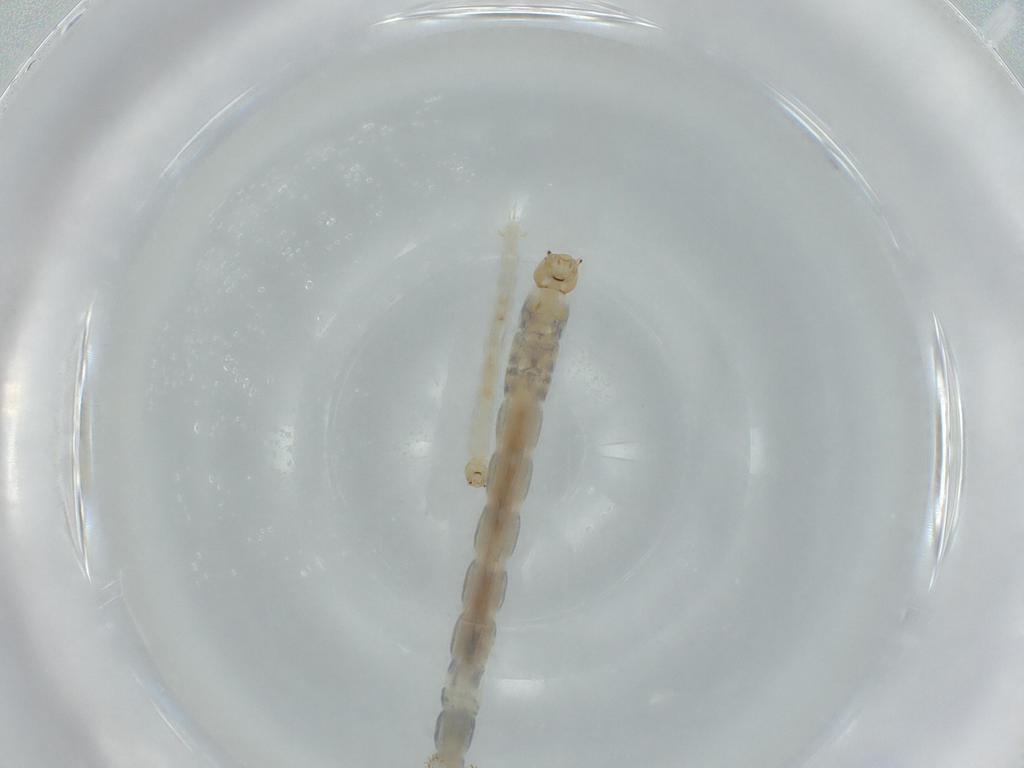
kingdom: Animalia
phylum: Arthropoda
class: Insecta
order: Diptera
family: Chironomidae
